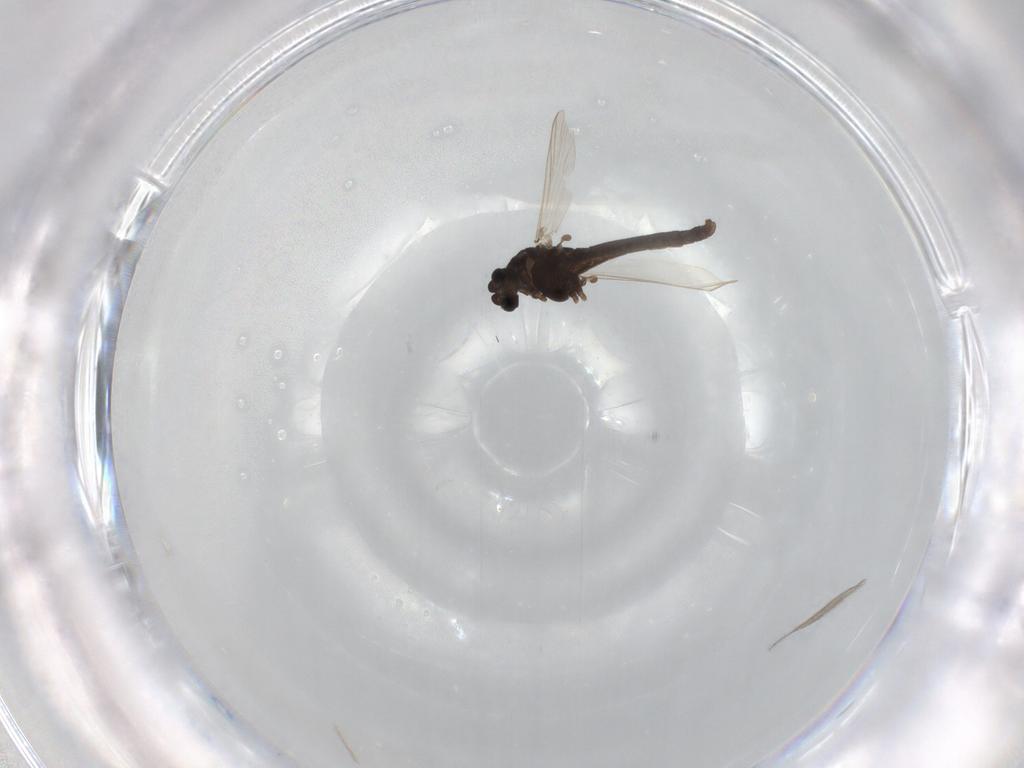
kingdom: Animalia
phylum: Arthropoda
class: Insecta
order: Diptera
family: Chironomidae
